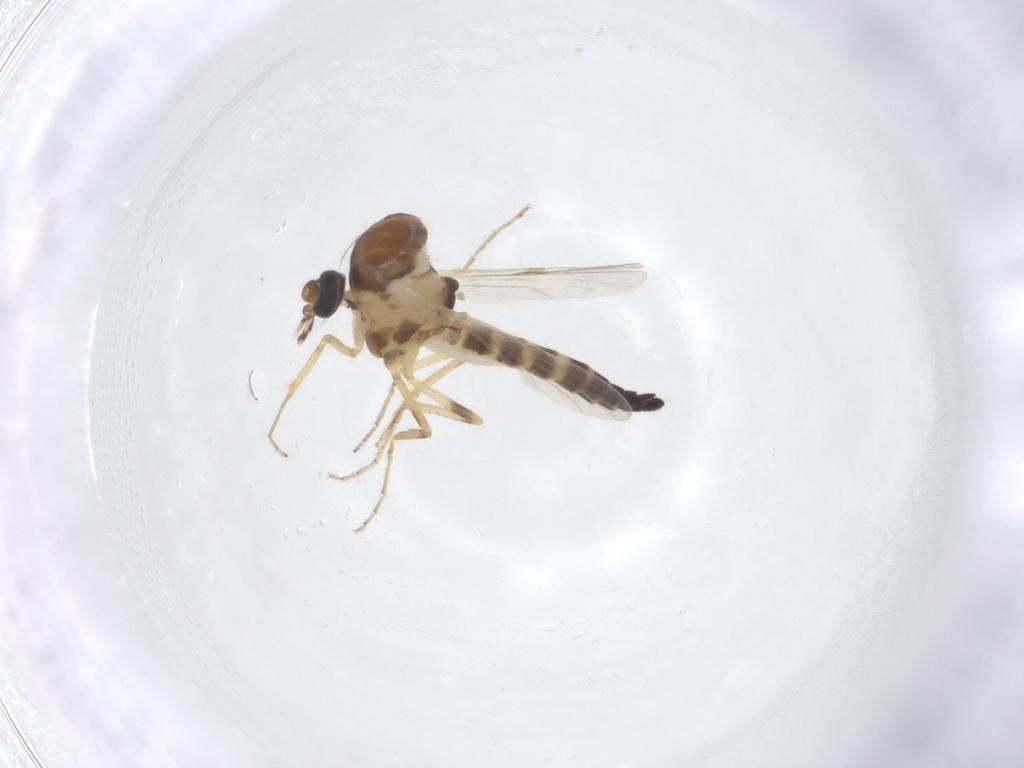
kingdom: Animalia
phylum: Arthropoda
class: Insecta
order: Diptera
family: Ceratopogonidae
